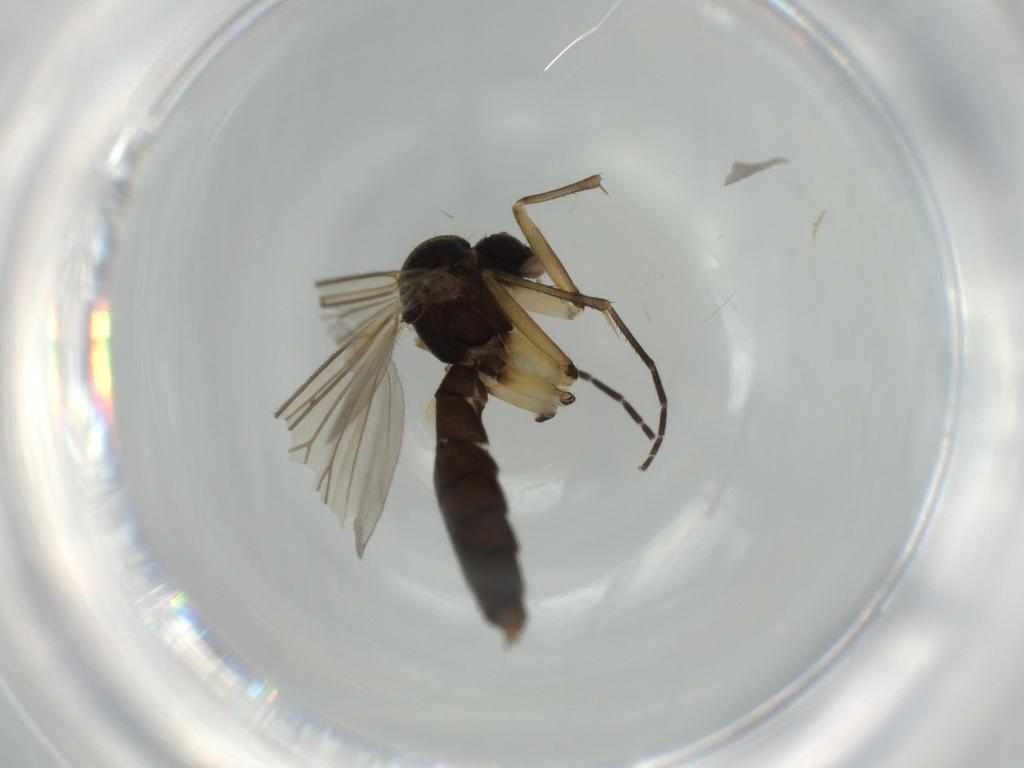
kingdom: Animalia
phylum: Arthropoda
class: Insecta
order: Diptera
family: Mycetophilidae
